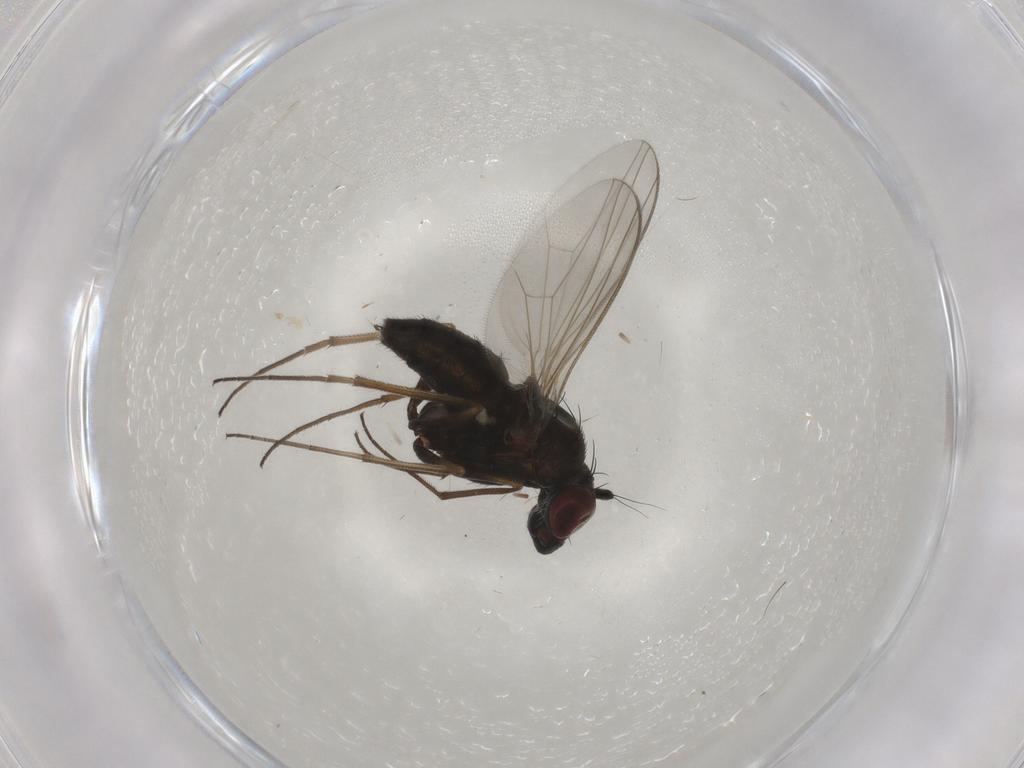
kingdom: Animalia
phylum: Arthropoda
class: Insecta
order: Diptera
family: Dolichopodidae
